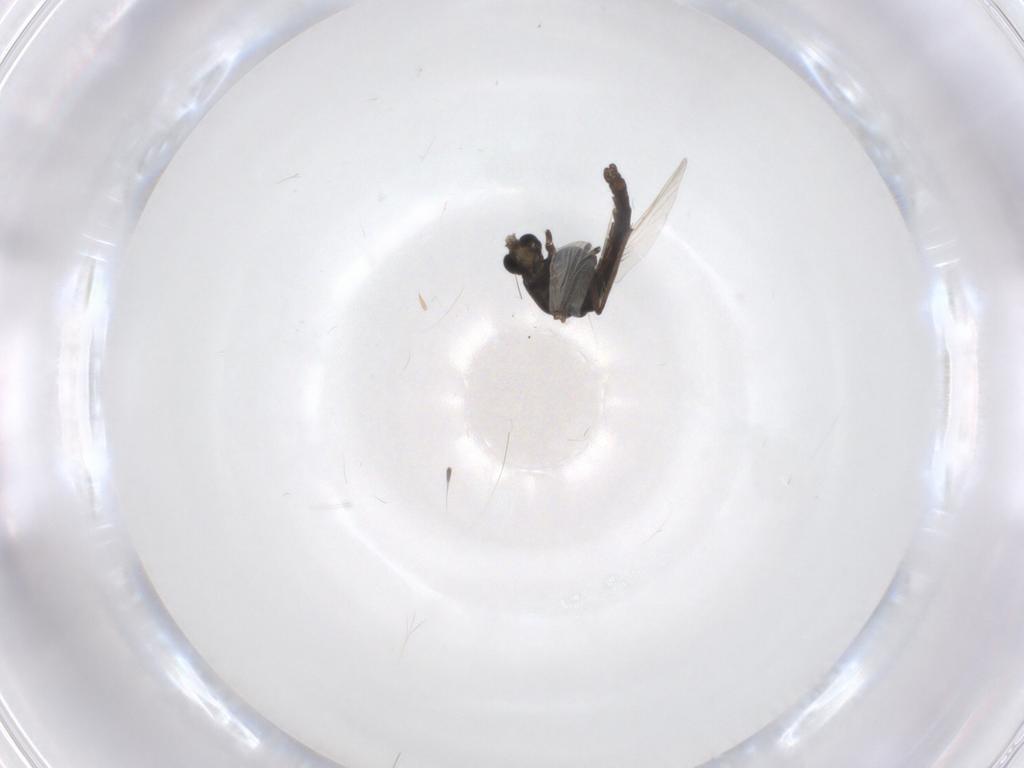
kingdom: Animalia
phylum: Arthropoda
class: Insecta
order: Diptera
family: Chironomidae
